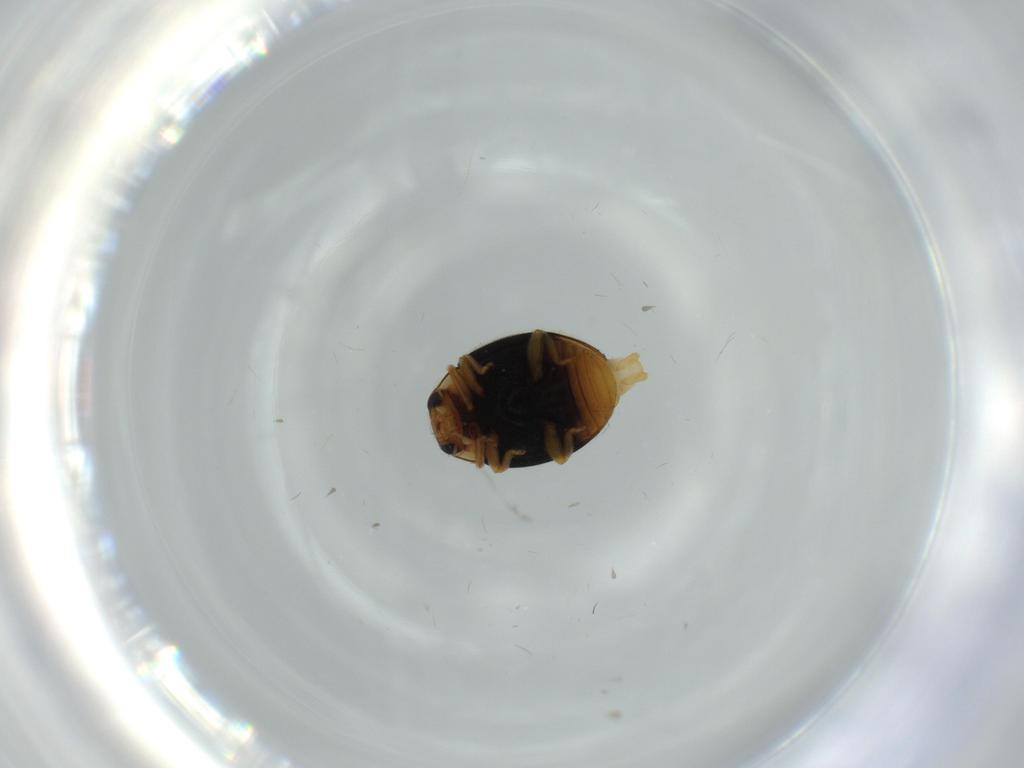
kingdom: Animalia
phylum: Arthropoda
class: Insecta
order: Coleoptera
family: Coccinellidae
